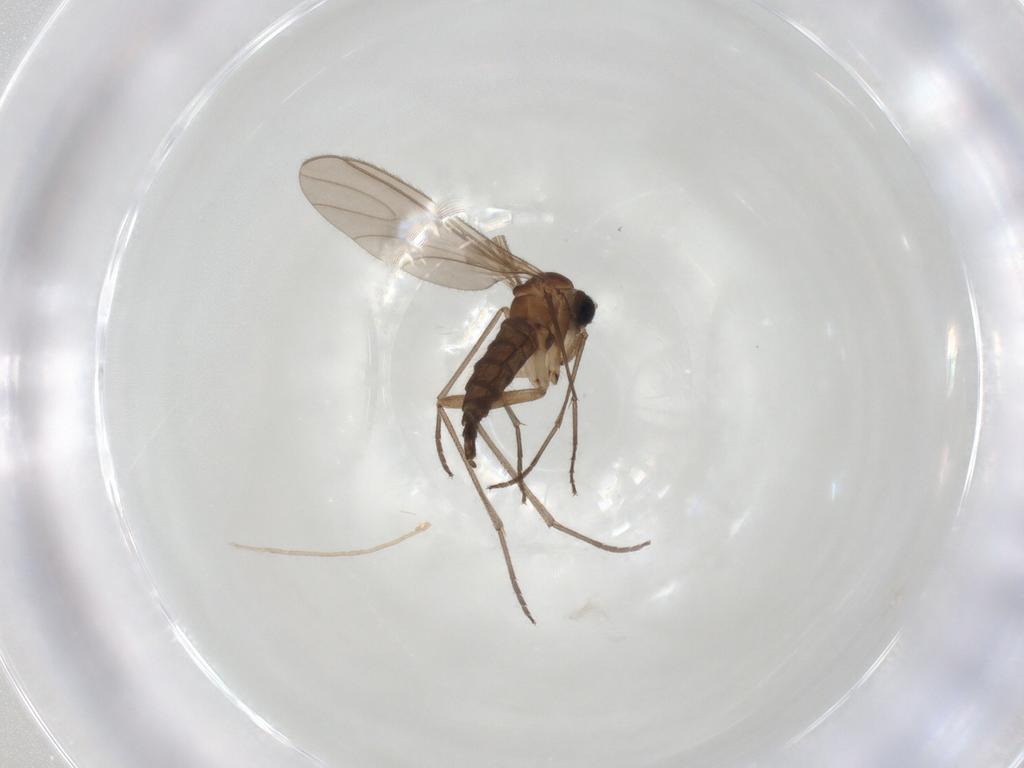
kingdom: Animalia
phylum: Arthropoda
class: Insecta
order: Diptera
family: Sciaridae
